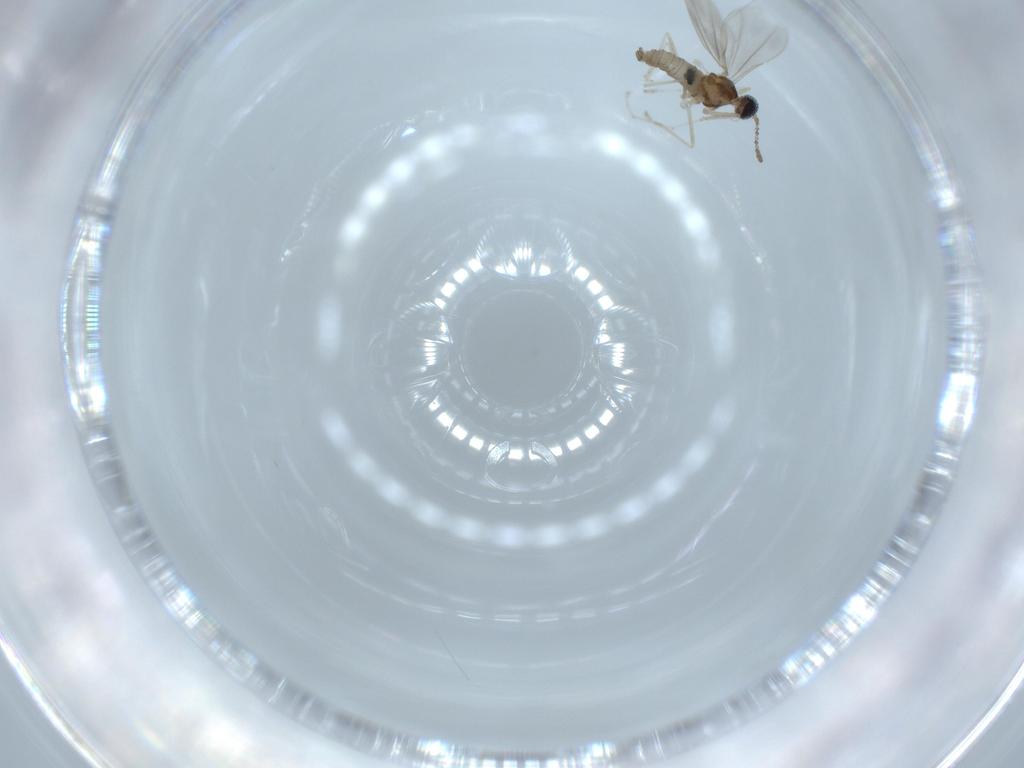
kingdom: Animalia
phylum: Arthropoda
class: Insecta
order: Diptera
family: Cecidomyiidae
